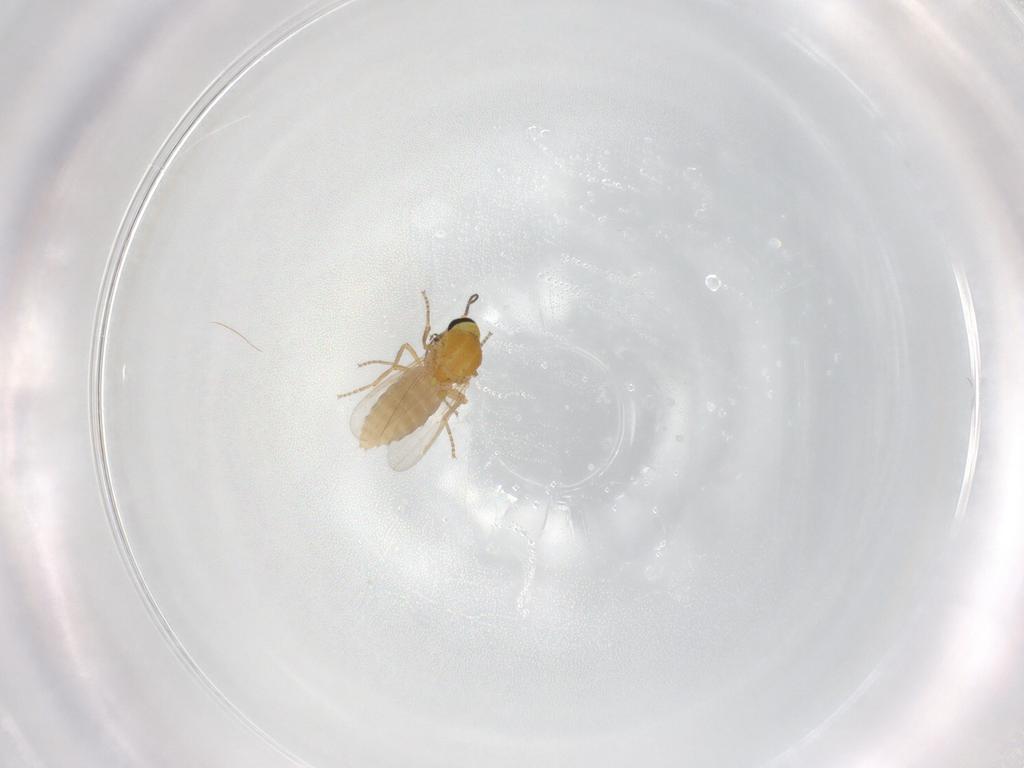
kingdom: Animalia
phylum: Arthropoda
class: Insecta
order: Diptera
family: Ceratopogonidae
